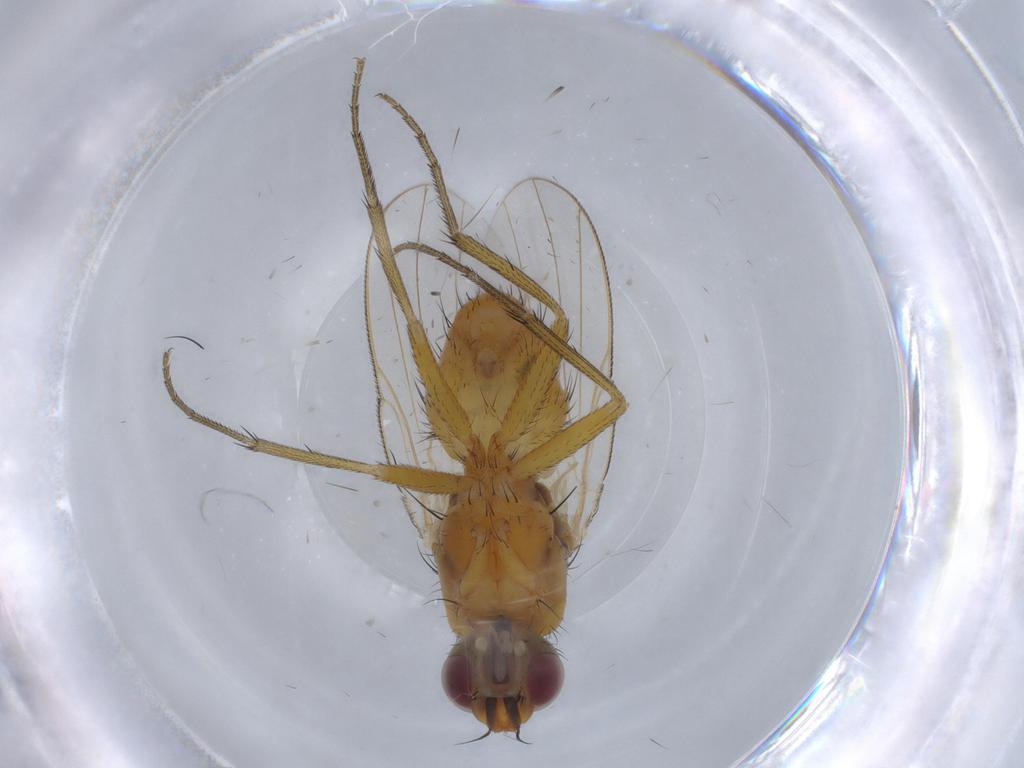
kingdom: Animalia
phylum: Arthropoda
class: Insecta
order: Diptera
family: Muscidae
